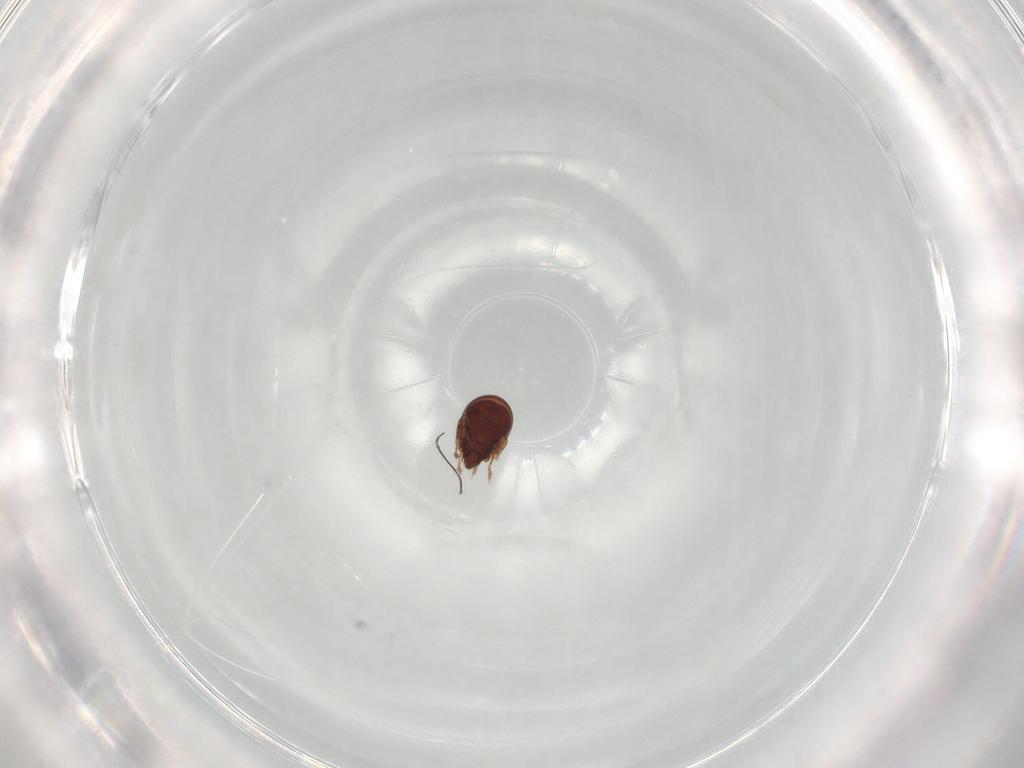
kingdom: Animalia
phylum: Arthropoda
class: Arachnida
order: Sarcoptiformes
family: Ceratozetidae
